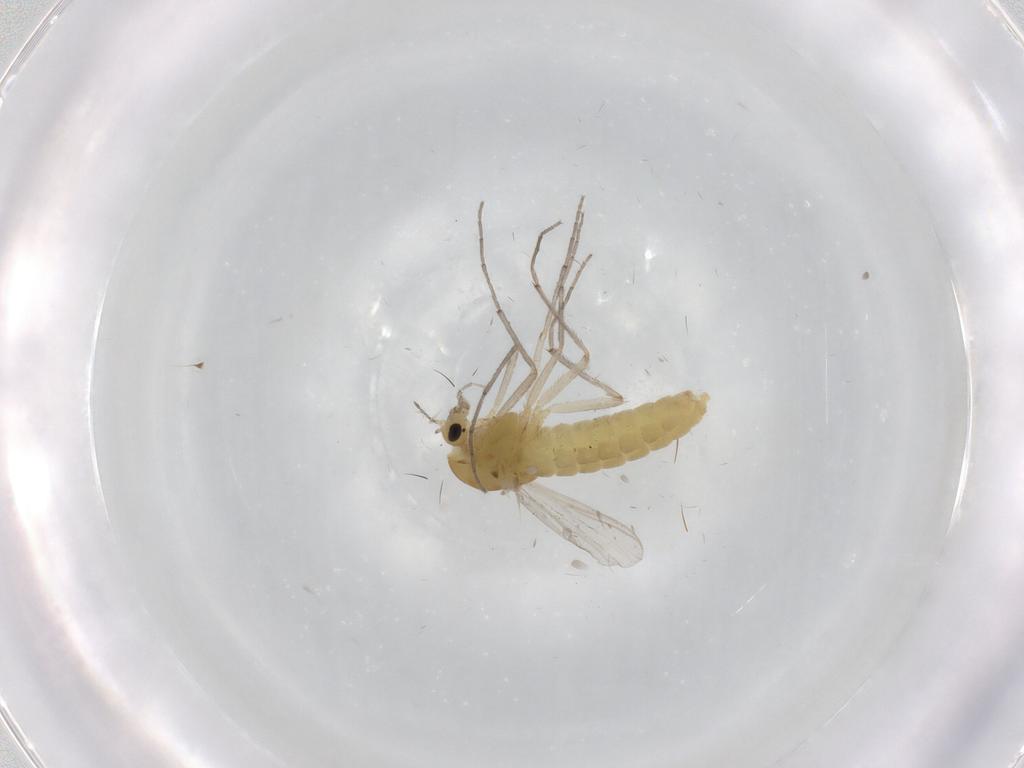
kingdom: Animalia
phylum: Arthropoda
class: Insecta
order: Diptera
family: Chironomidae
